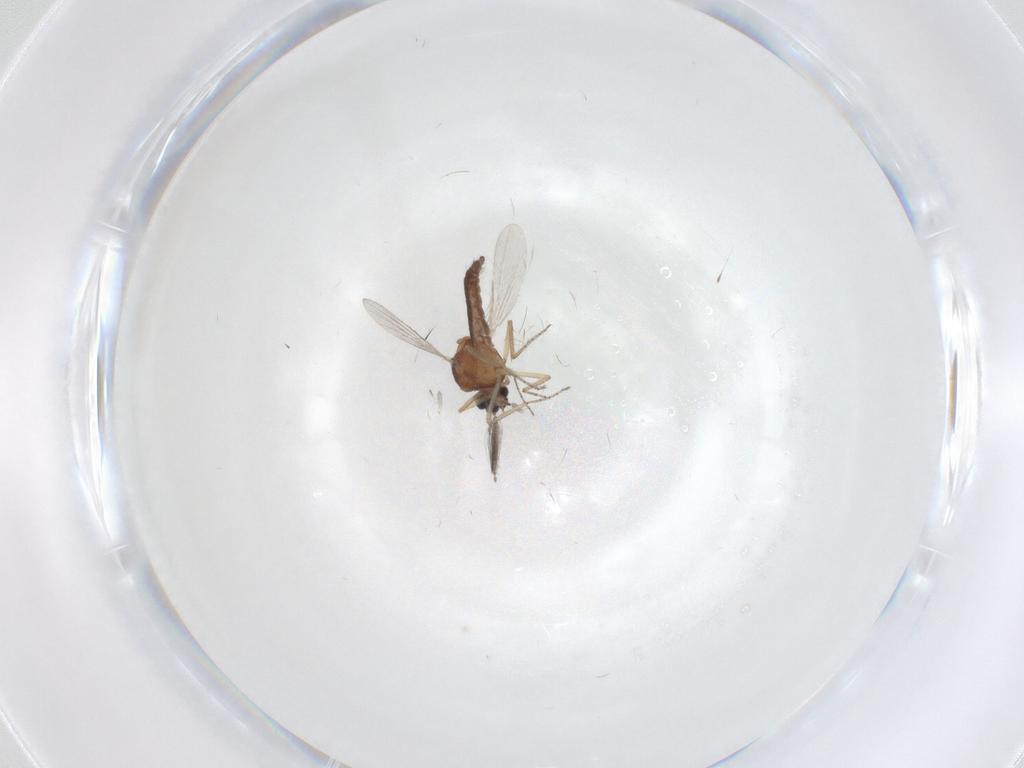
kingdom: Animalia
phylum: Arthropoda
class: Insecta
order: Diptera
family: Ceratopogonidae
